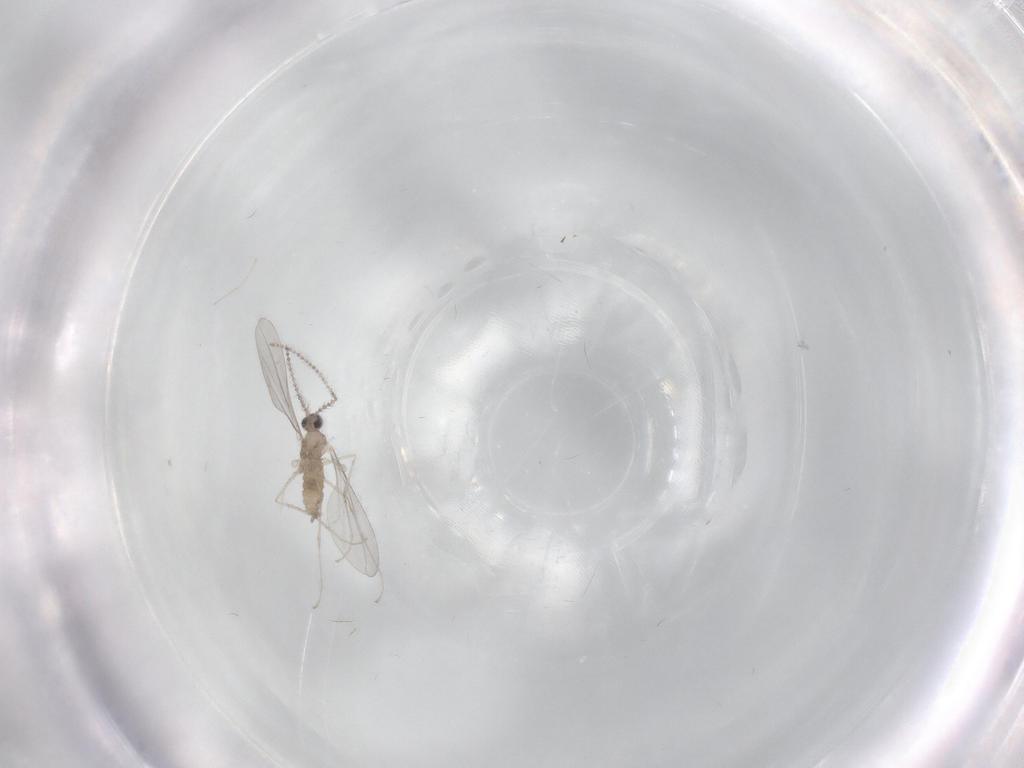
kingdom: Animalia
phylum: Arthropoda
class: Insecta
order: Diptera
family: Cecidomyiidae
